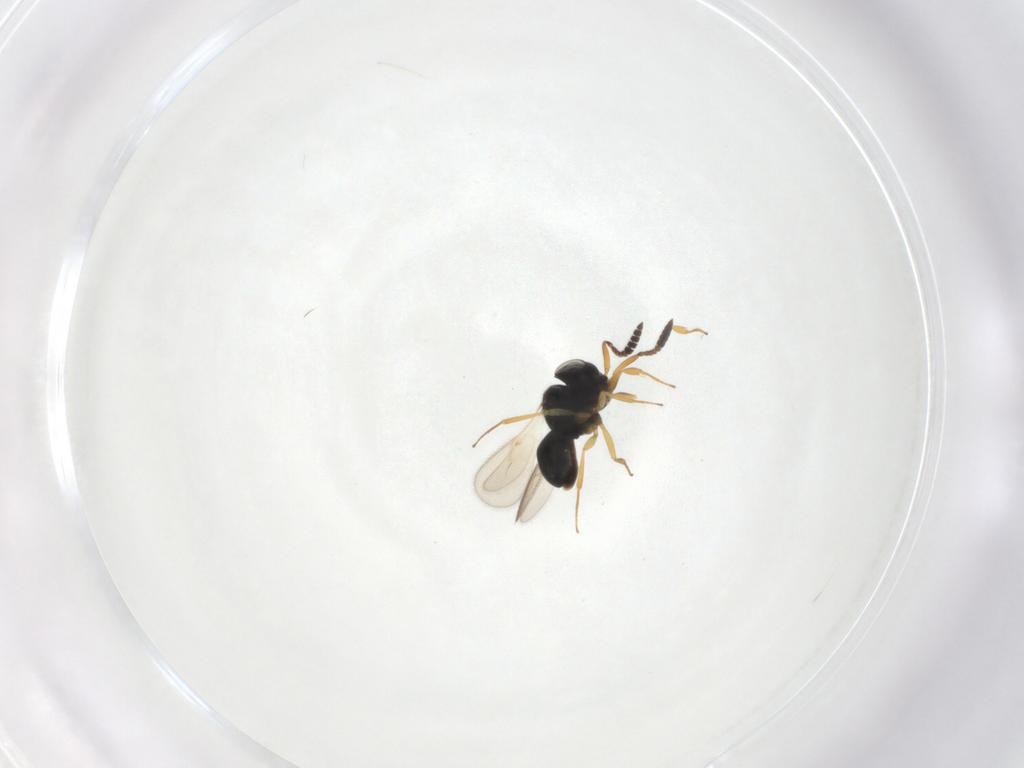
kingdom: Animalia
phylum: Arthropoda
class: Insecta
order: Hymenoptera
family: Scelionidae
